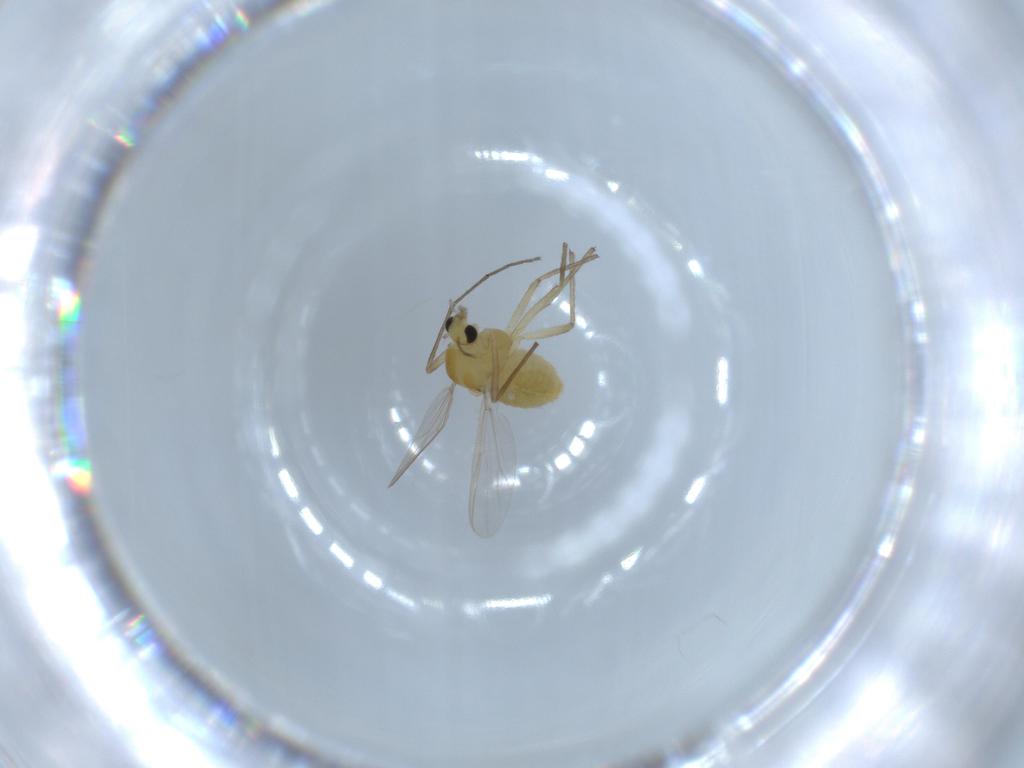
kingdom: Animalia
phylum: Arthropoda
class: Insecta
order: Diptera
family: Chironomidae
